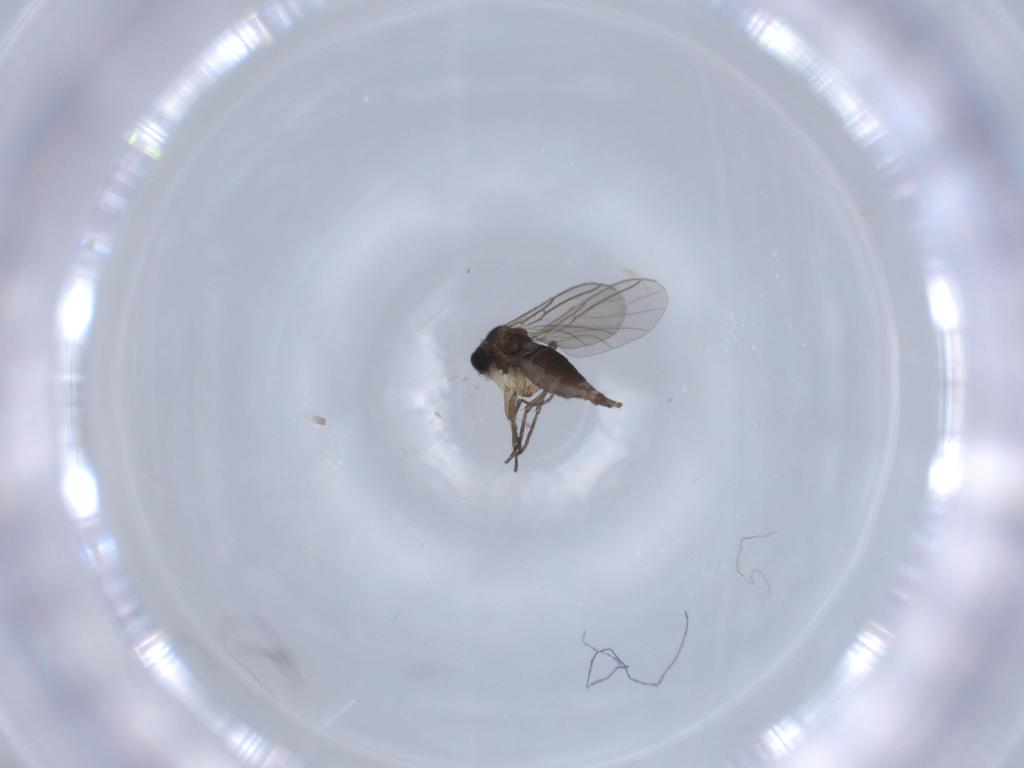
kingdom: Animalia
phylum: Arthropoda
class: Insecta
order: Diptera
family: Sciaridae
